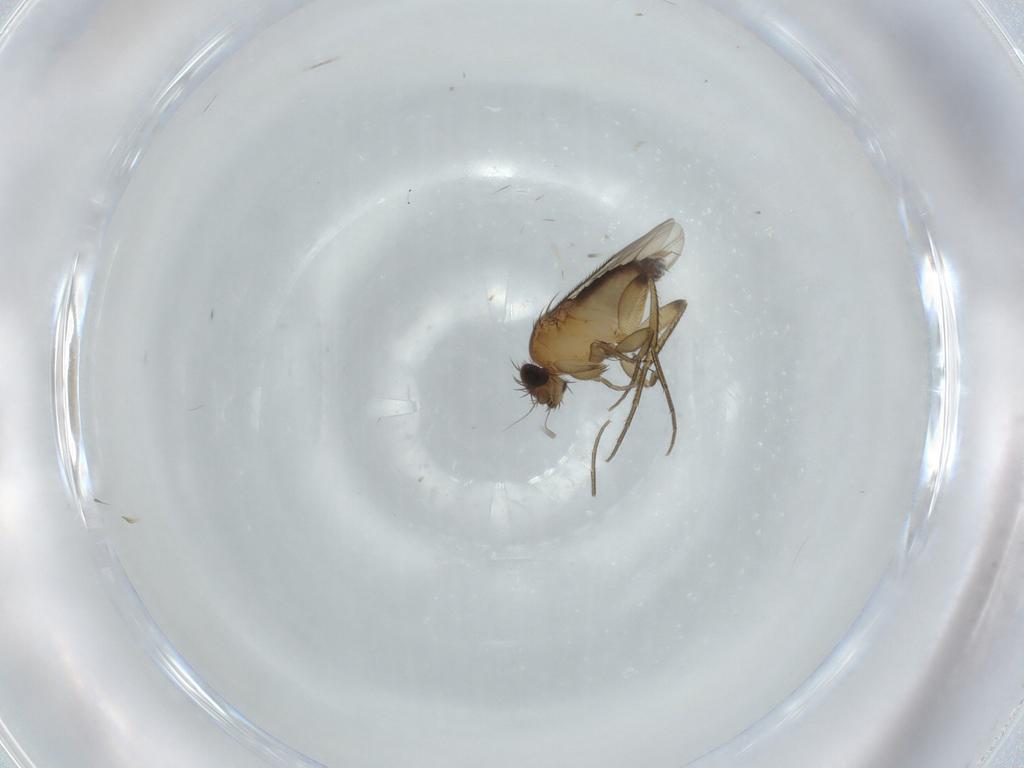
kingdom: Animalia
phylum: Arthropoda
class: Insecta
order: Diptera
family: Phoridae
